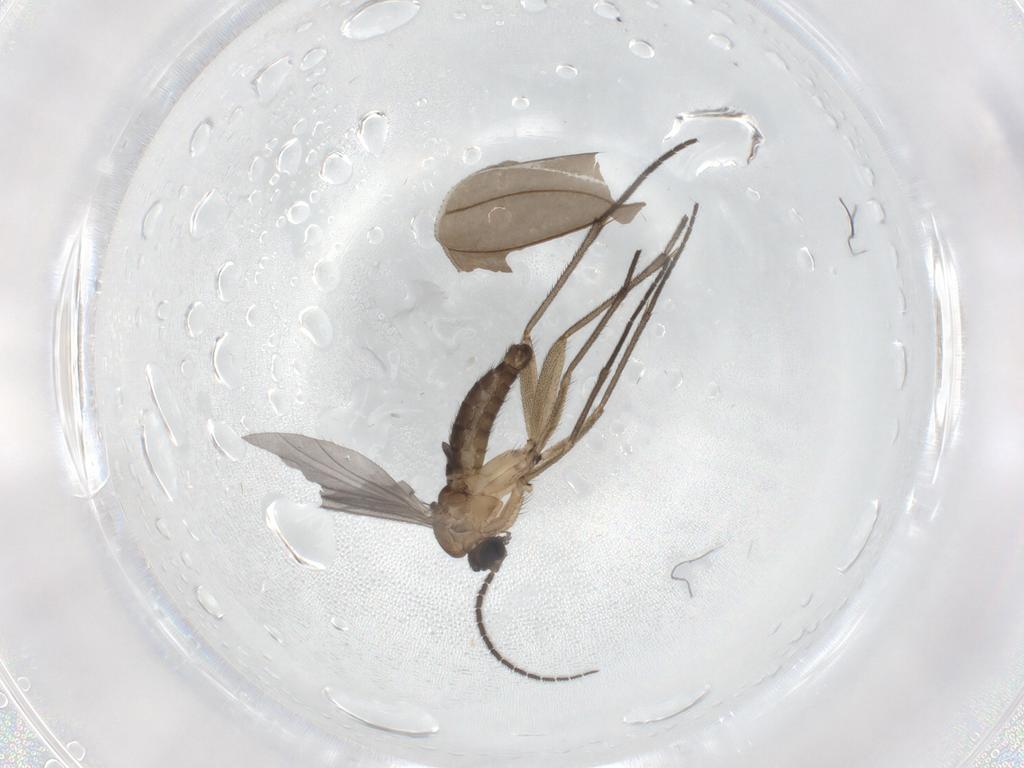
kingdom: Animalia
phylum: Arthropoda
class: Insecta
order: Diptera
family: Sciaridae
